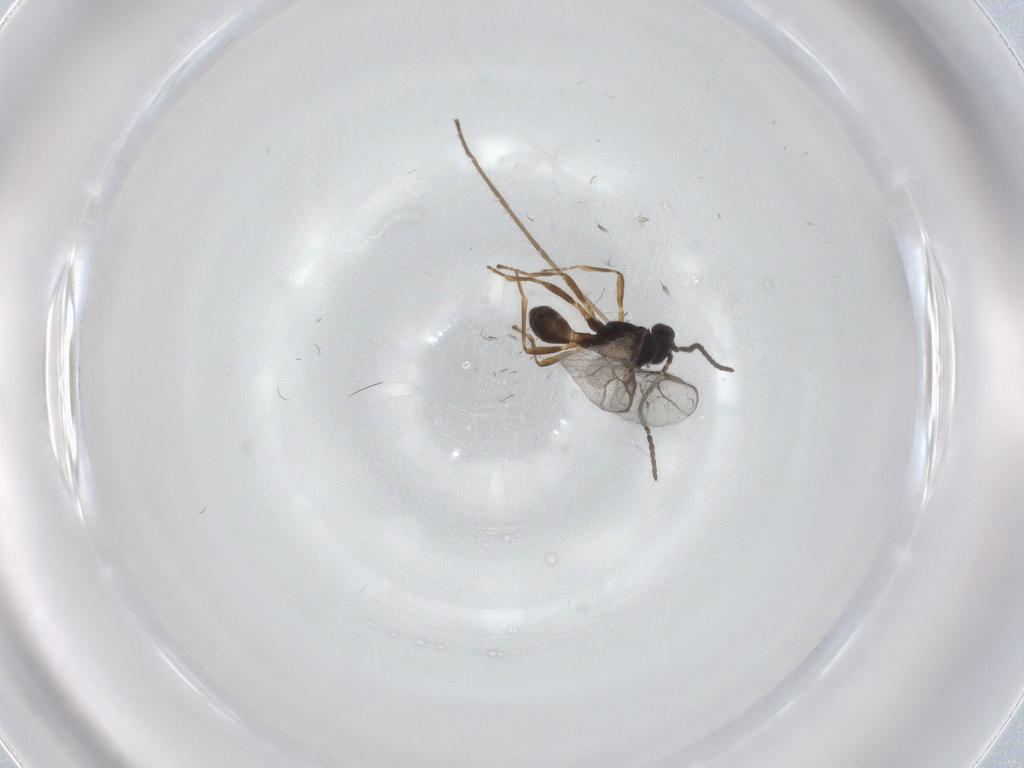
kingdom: Animalia
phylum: Arthropoda
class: Insecta
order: Hymenoptera
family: Braconidae
